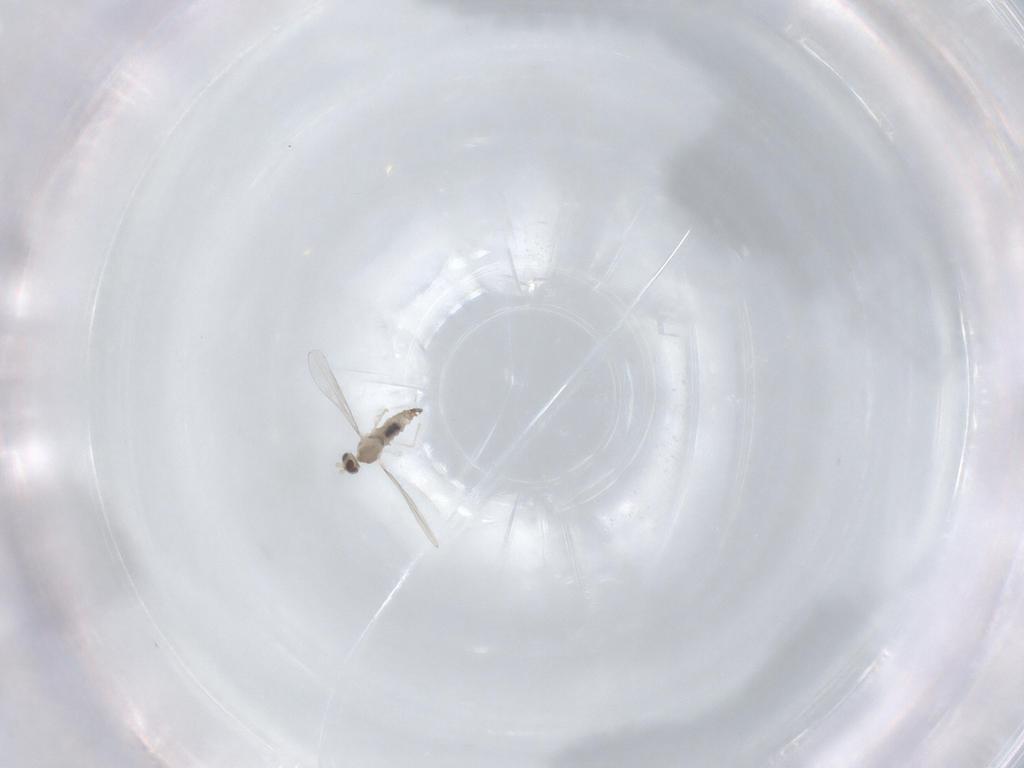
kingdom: Animalia
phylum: Arthropoda
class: Insecta
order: Diptera
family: Cecidomyiidae
